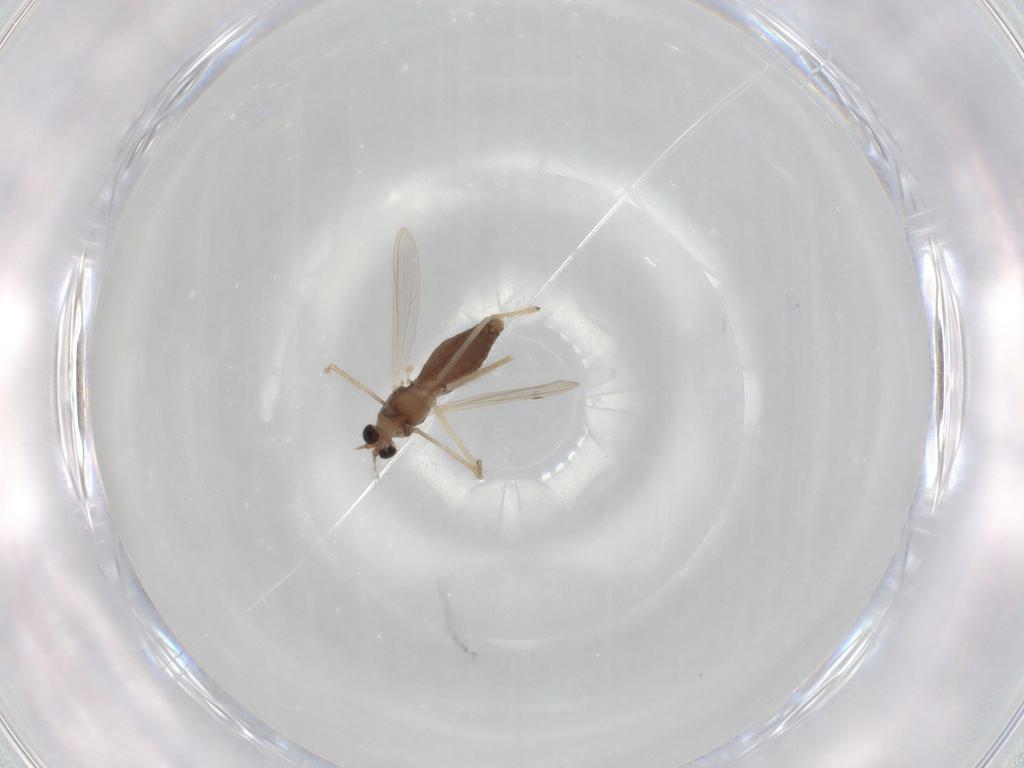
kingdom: Animalia
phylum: Arthropoda
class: Insecta
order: Diptera
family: Chironomidae
